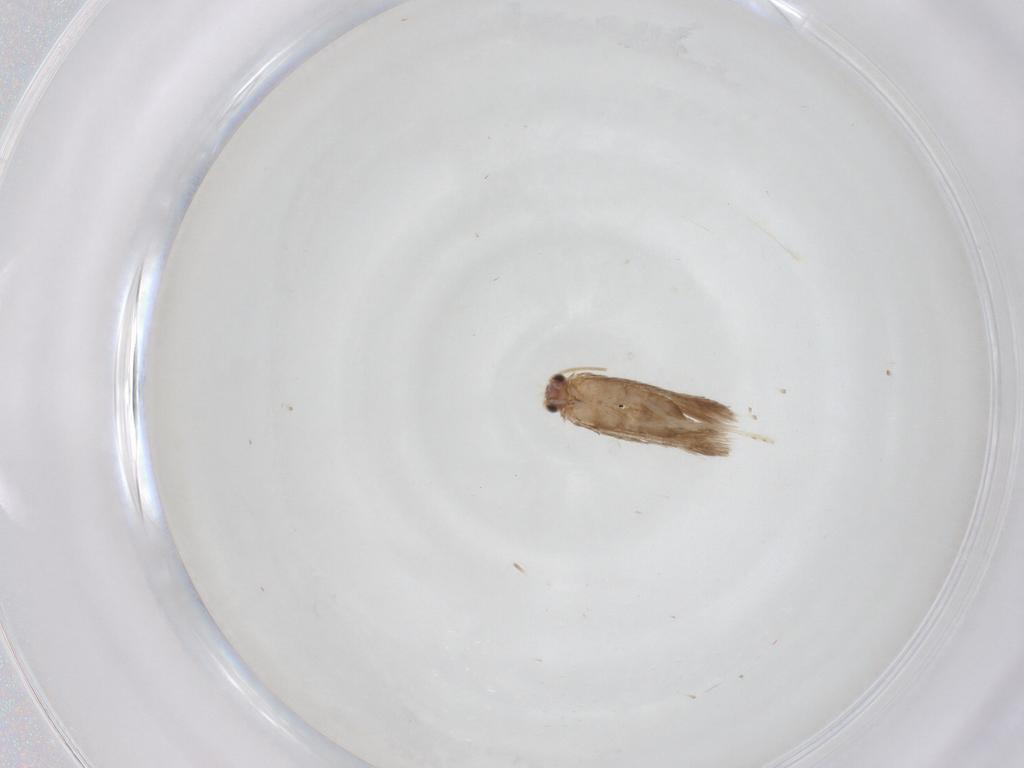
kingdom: Animalia
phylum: Arthropoda
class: Insecta
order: Lepidoptera
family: Nepticulidae
